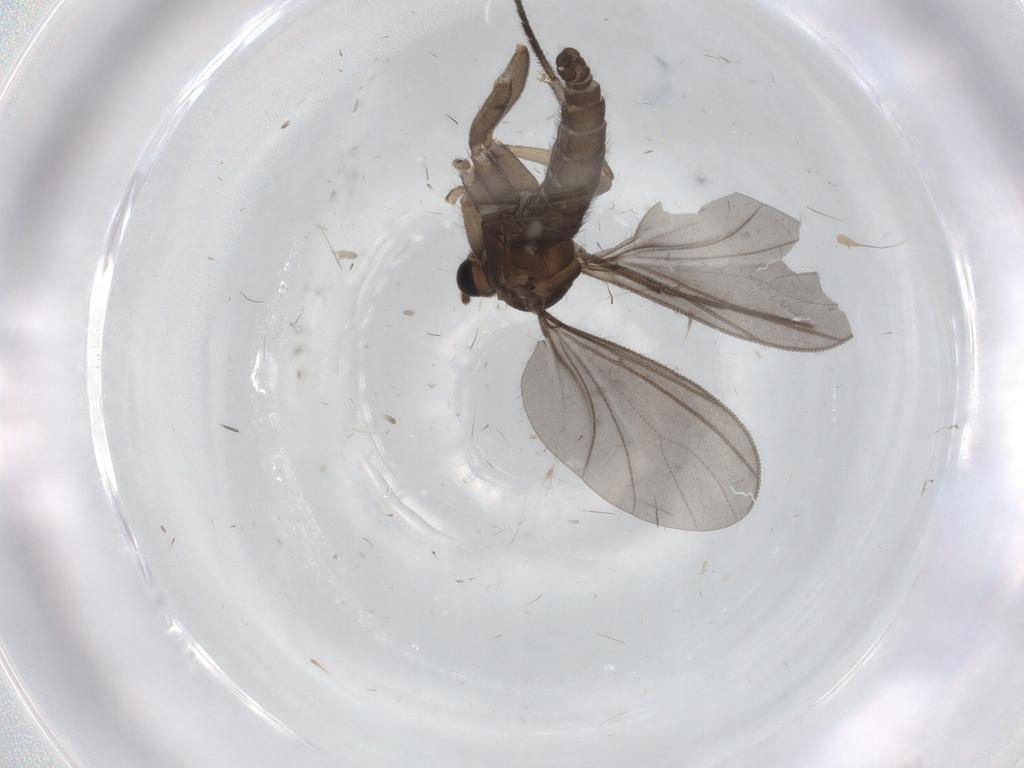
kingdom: Animalia
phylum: Arthropoda
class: Insecta
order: Diptera
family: Sciaridae
